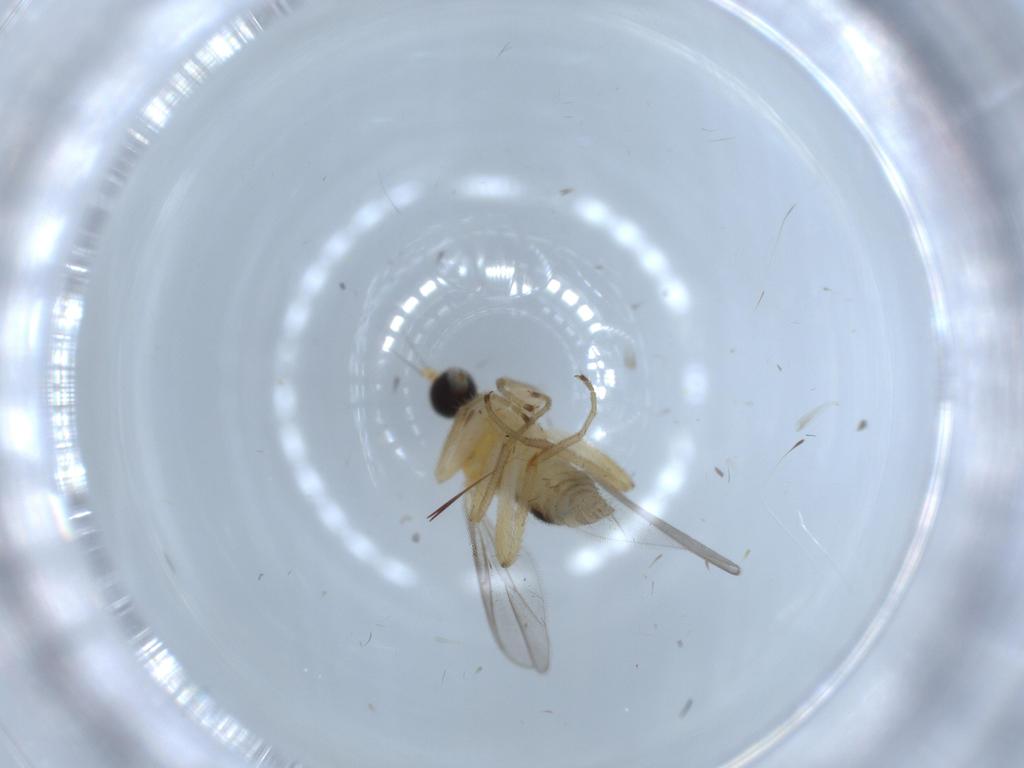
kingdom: Animalia
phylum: Arthropoda
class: Insecta
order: Diptera
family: Hybotidae
